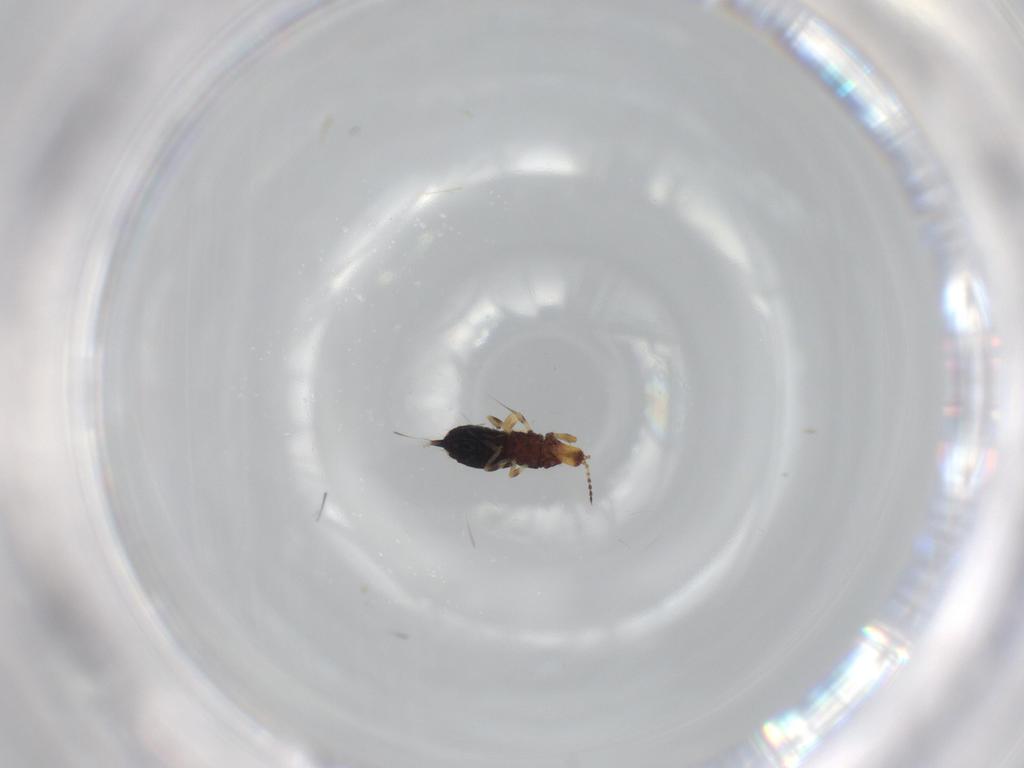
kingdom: Animalia
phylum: Arthropoda
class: Insecta
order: Thysanoptera
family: Phlaeothripidae
